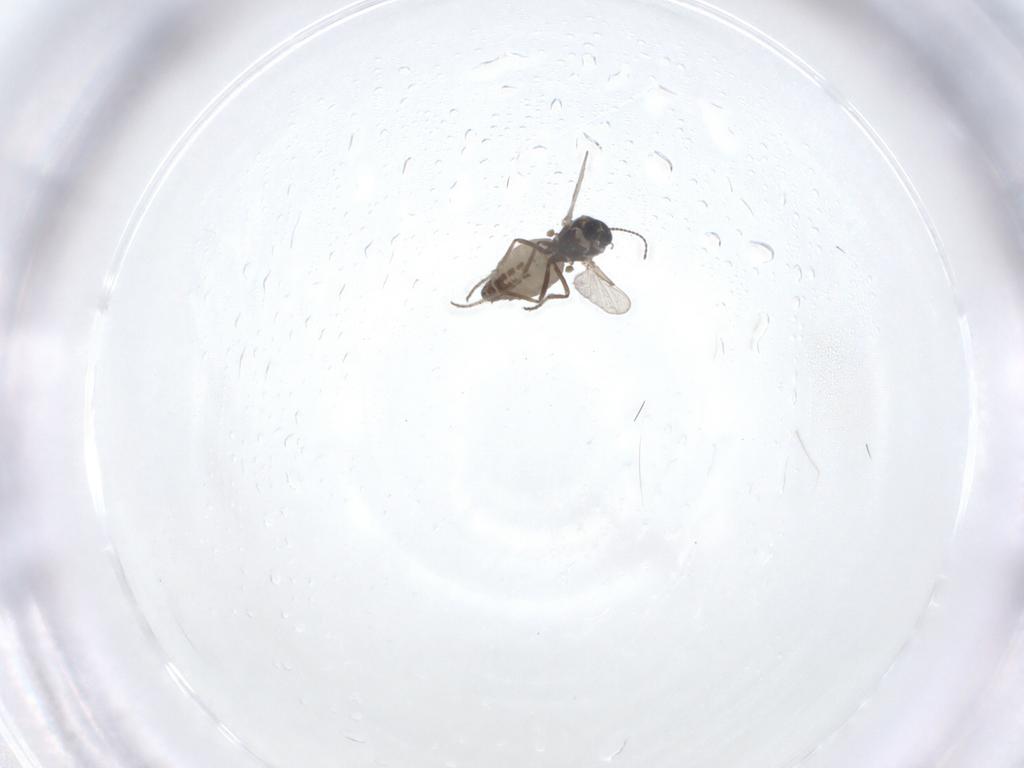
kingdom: Animalia
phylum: Arthropoda
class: Insecta
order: Diptera
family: Ceratopogonidae
